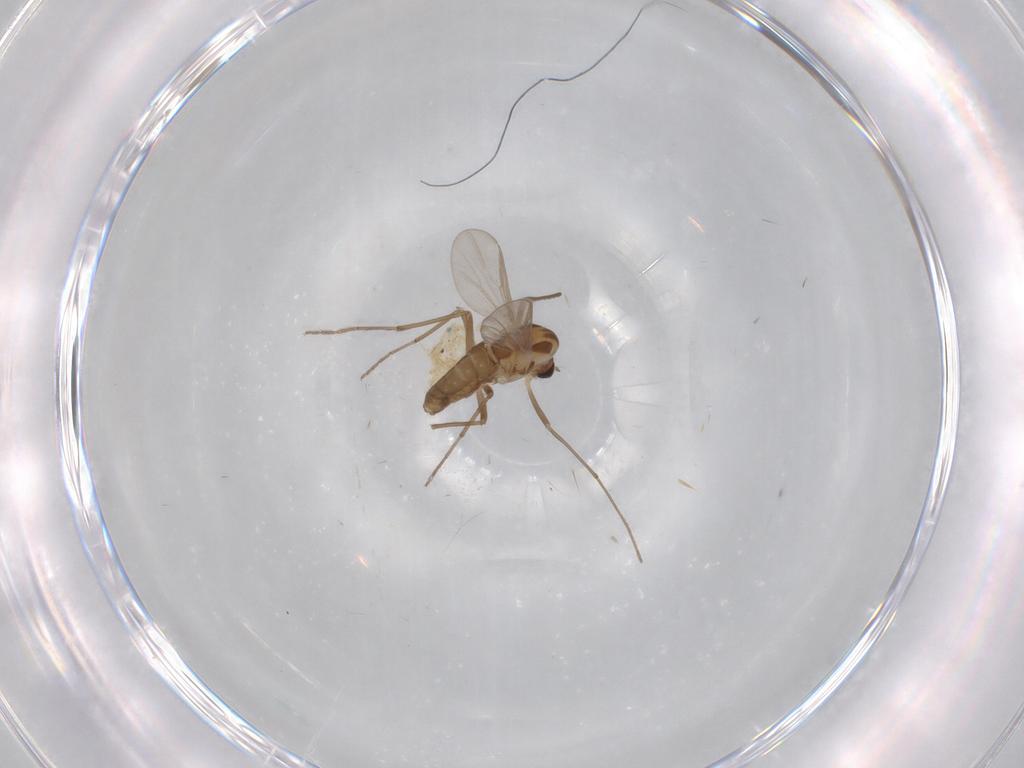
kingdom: Animalia
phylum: Arthropoda
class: Insecta
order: Diptera
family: Chironomidae
